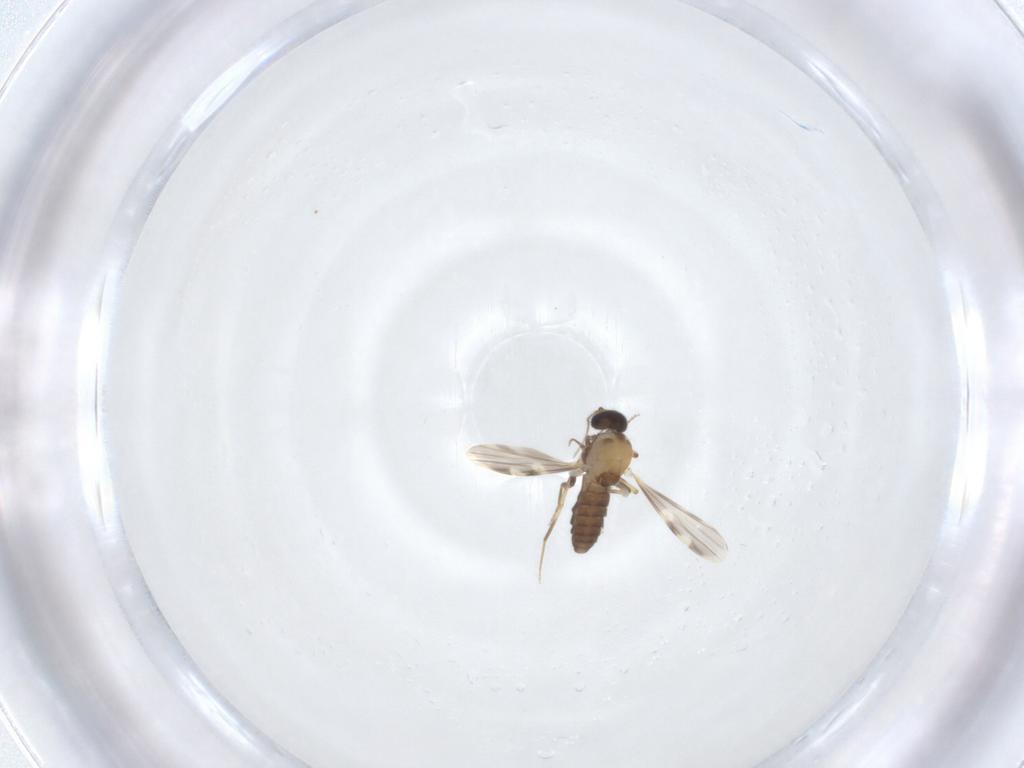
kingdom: Animalia
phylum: Arthropoda
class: Insecta
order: Diptera
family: Ceratopogonidae
